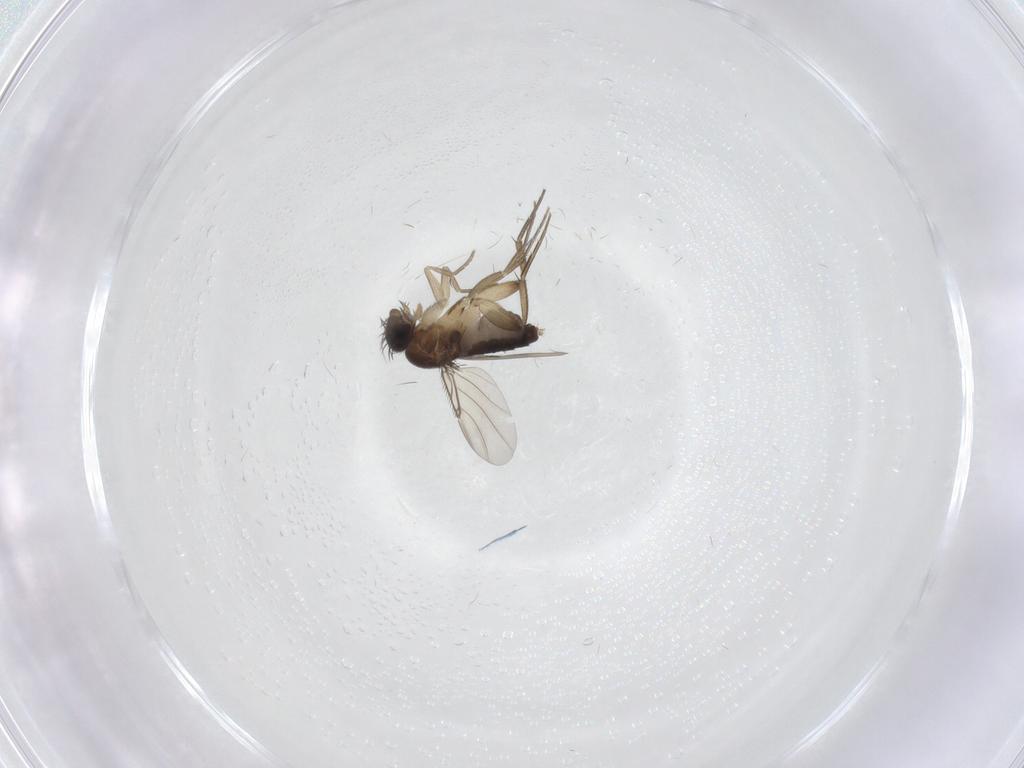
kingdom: Animalia
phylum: Arthropoda
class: Insecta
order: Diptera
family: Phoridae
